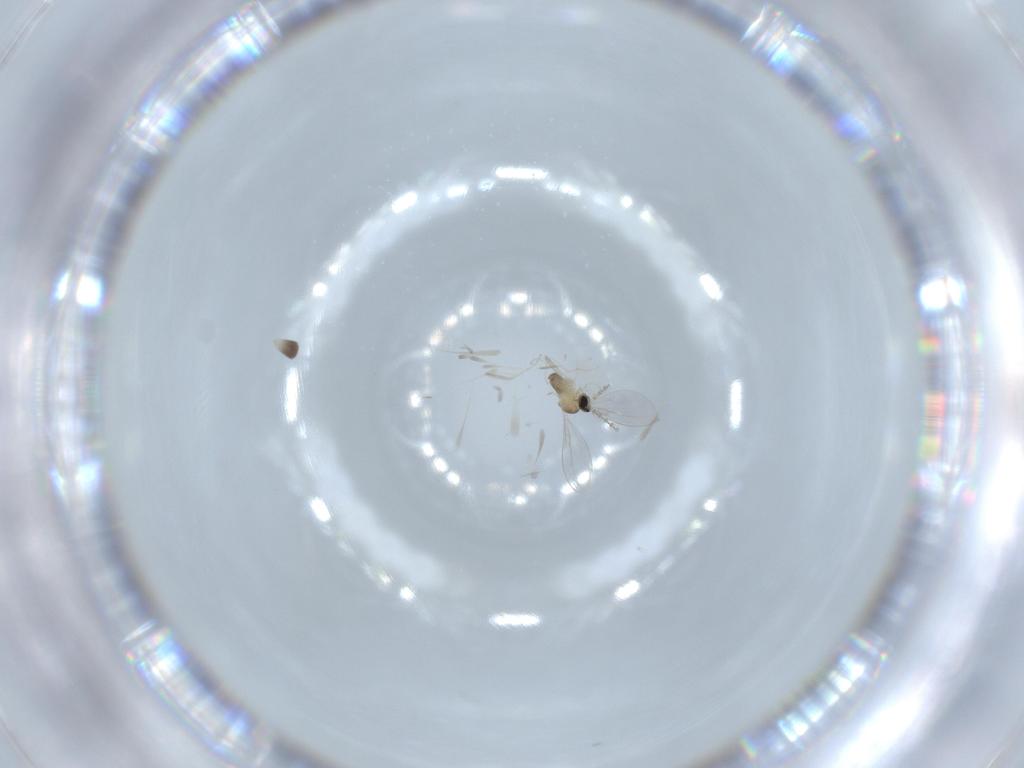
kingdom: Animalia
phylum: Arthropoda
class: Insecta
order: Diptera
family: Cecidomyiidae
